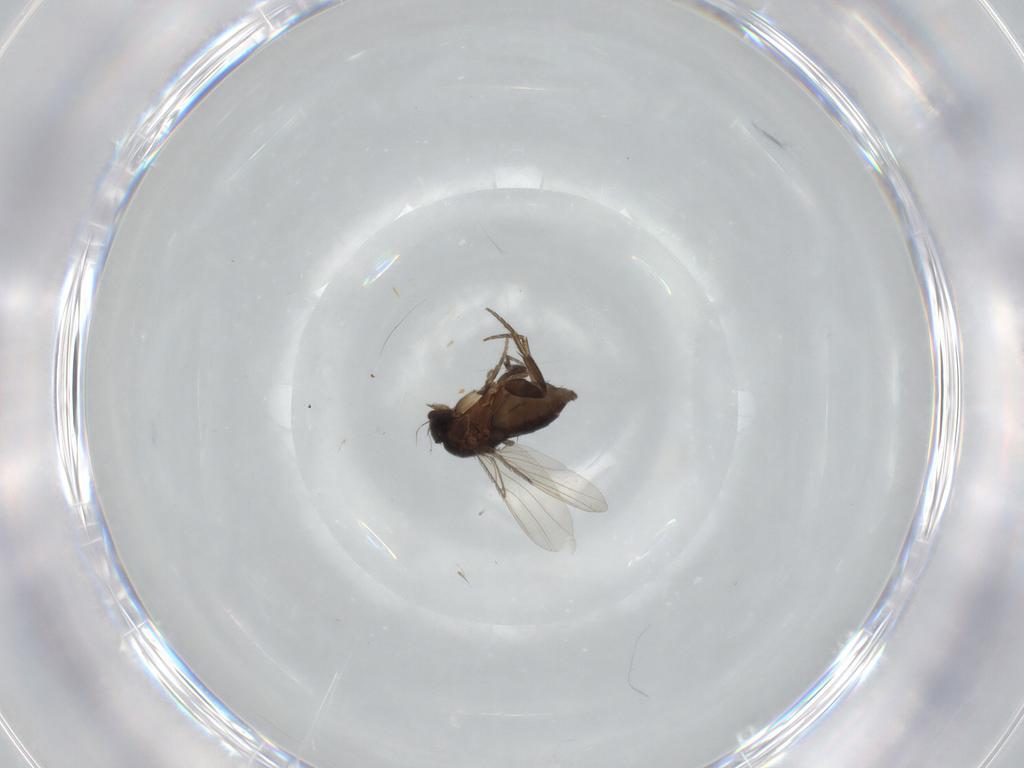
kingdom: Animalia
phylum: Arthropoda
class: Insecta
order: Diptera
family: Phoridae
